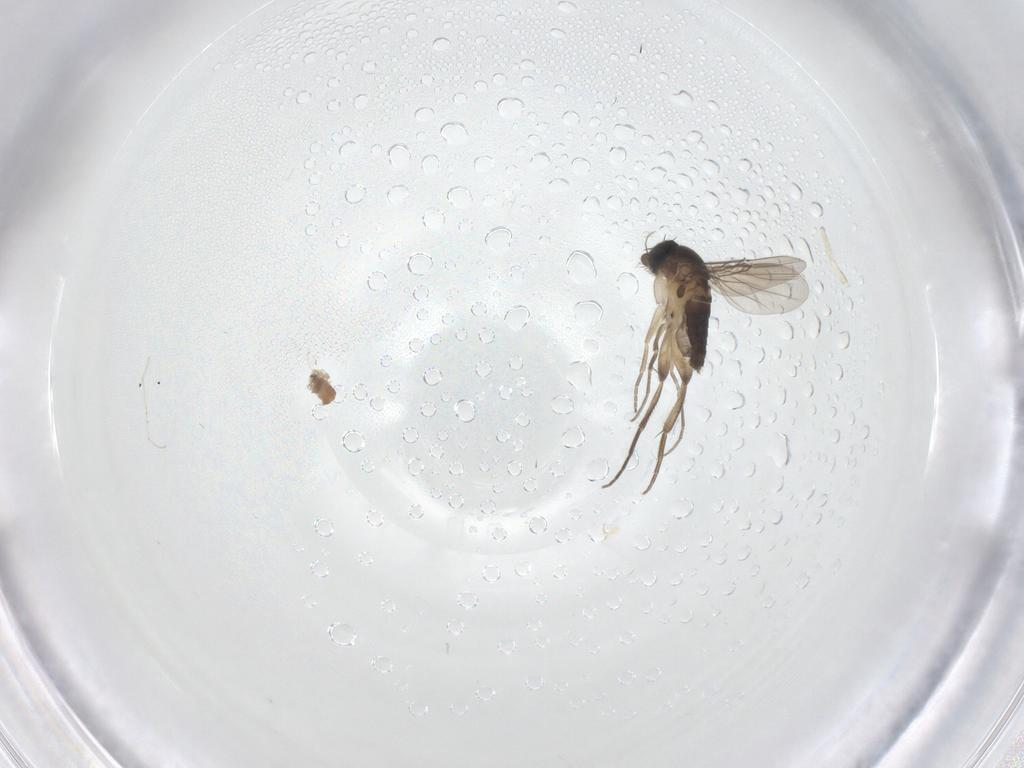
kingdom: Animalia
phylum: Arthropoda
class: Insecta
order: Diptera
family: Phoridae
